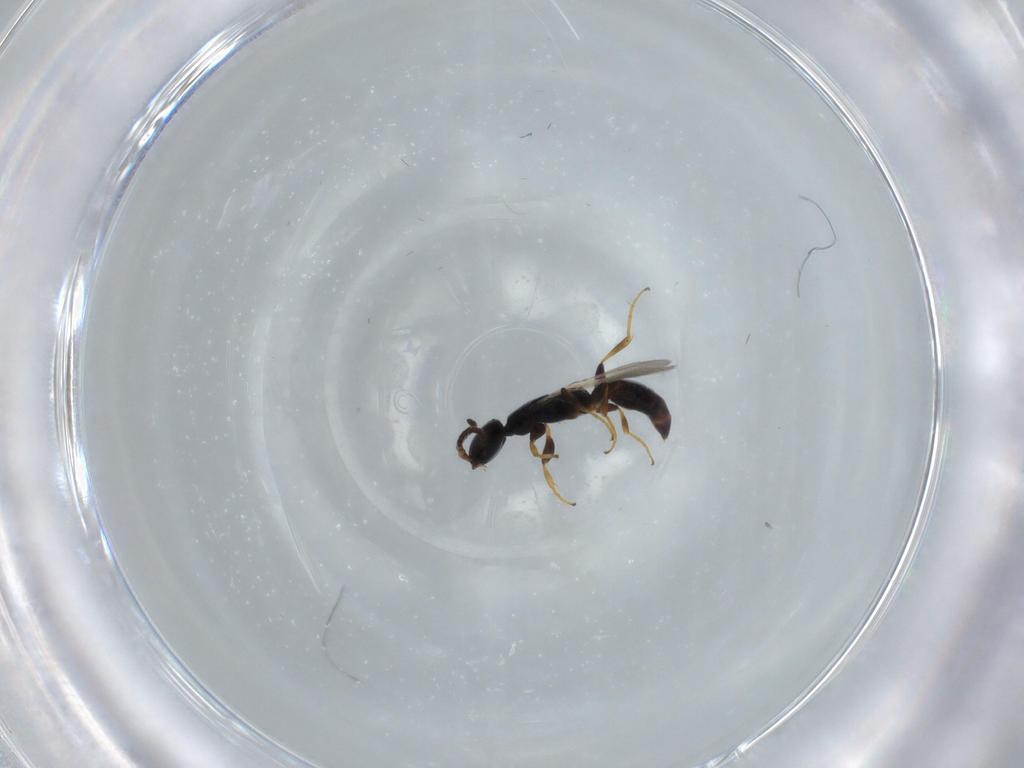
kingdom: Animalia
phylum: Arthropoda
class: Insecta
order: Hymenoptera
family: Bethylidae
